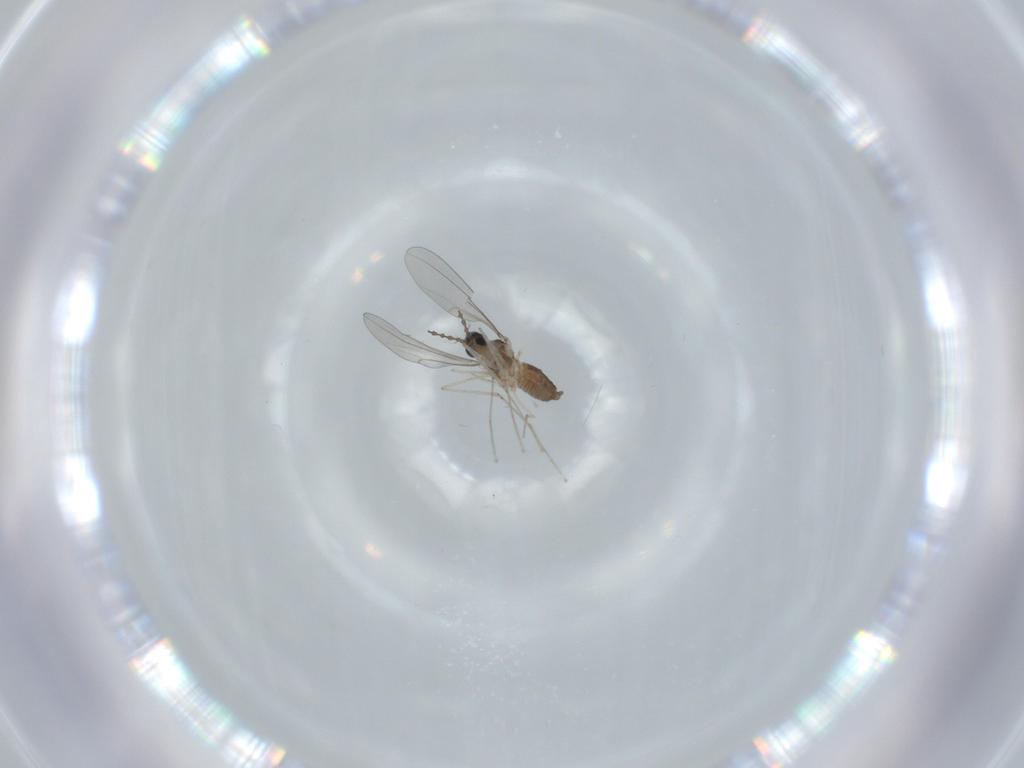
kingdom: Animalia
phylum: Arthropoda
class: Insecta
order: Diptera
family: Cecidomyiidae
